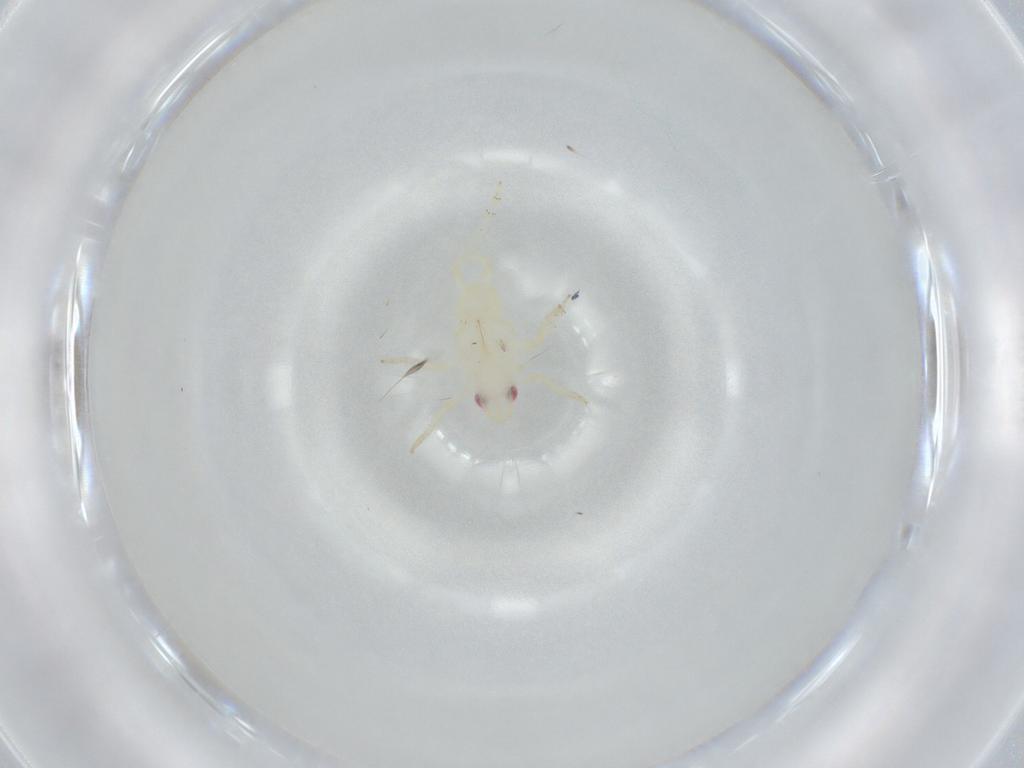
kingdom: Animalia
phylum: Arthropoda
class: Insecta
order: Hemiptera
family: Tropiduchidae
